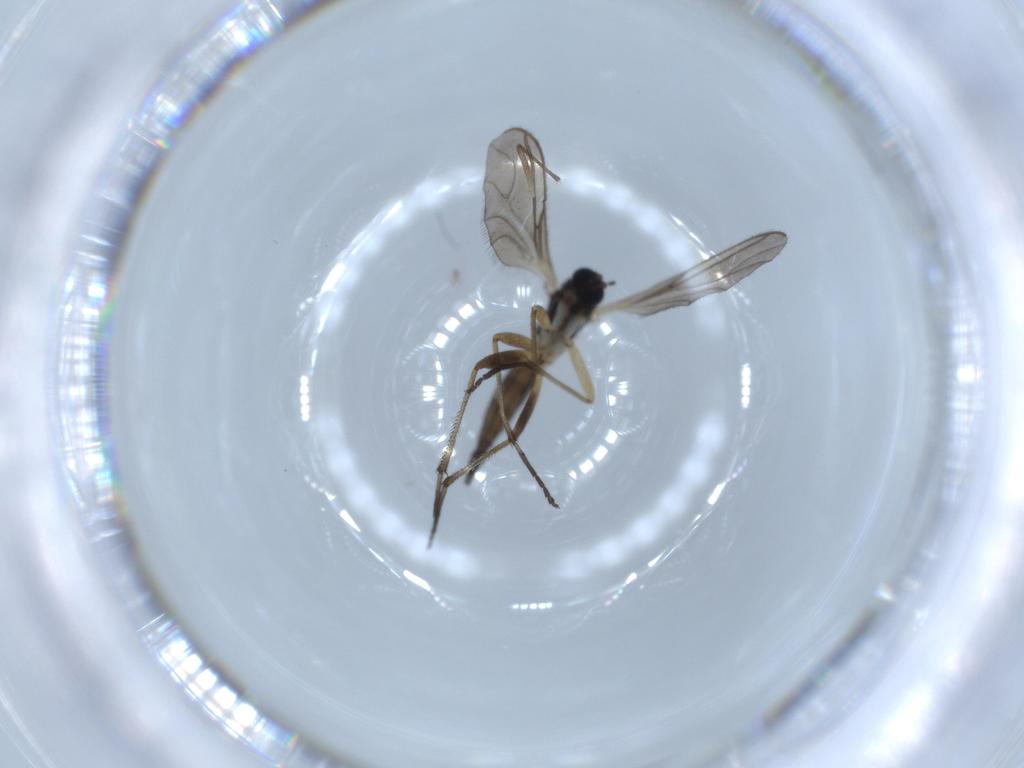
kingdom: Animalia
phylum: Arthropoda
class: Insecta
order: Diptera
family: Sciaridae
